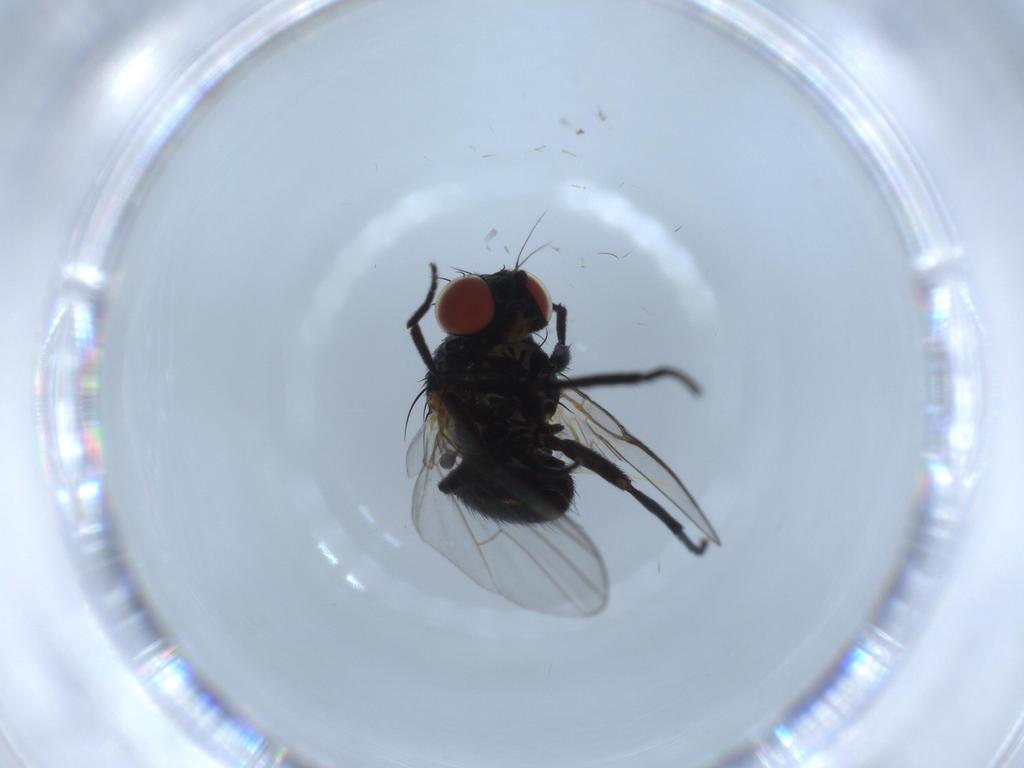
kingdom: Animalia
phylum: Arthropoda
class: Insecta
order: Diptera
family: Agromyzidae
